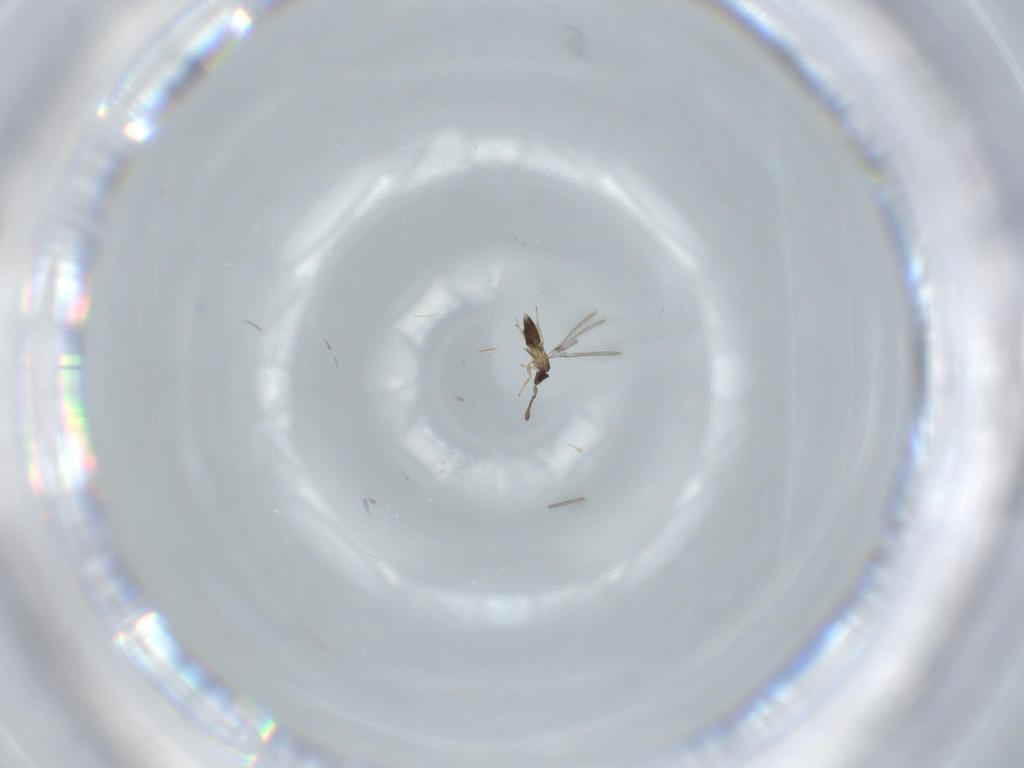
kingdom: Animalia
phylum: Arthropoda
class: Insecta
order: Hymenoptera
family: Mymaridae
